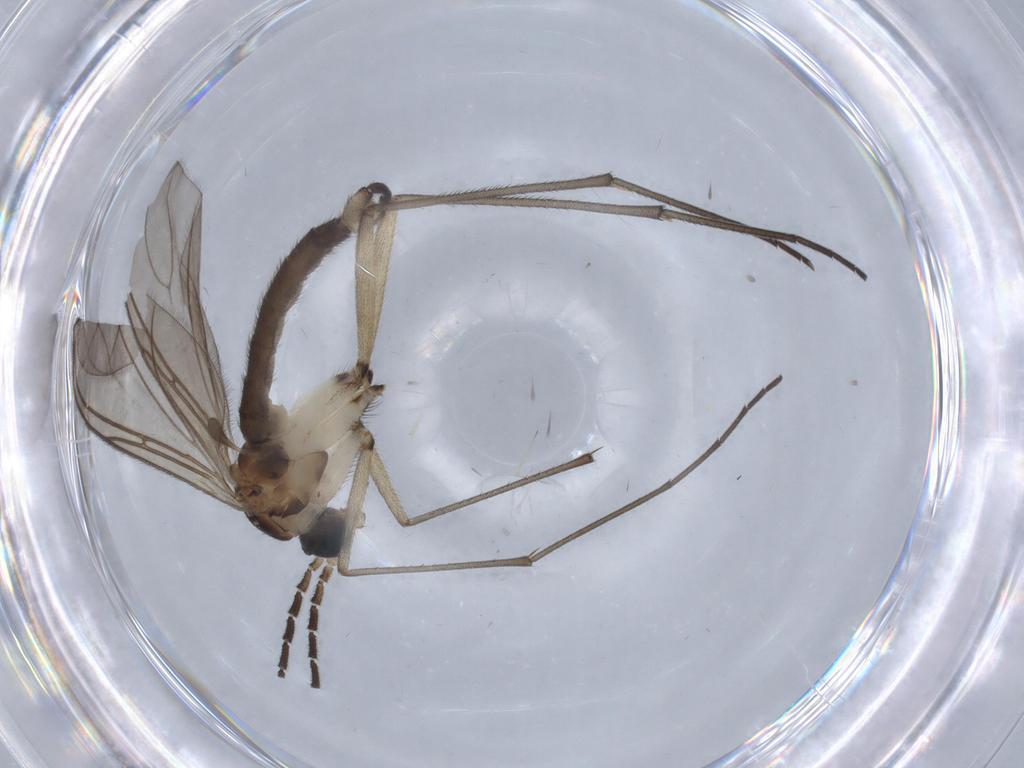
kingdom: Animalia
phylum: Arthropoda
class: Insecta
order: Diptera
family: Sciaridae
